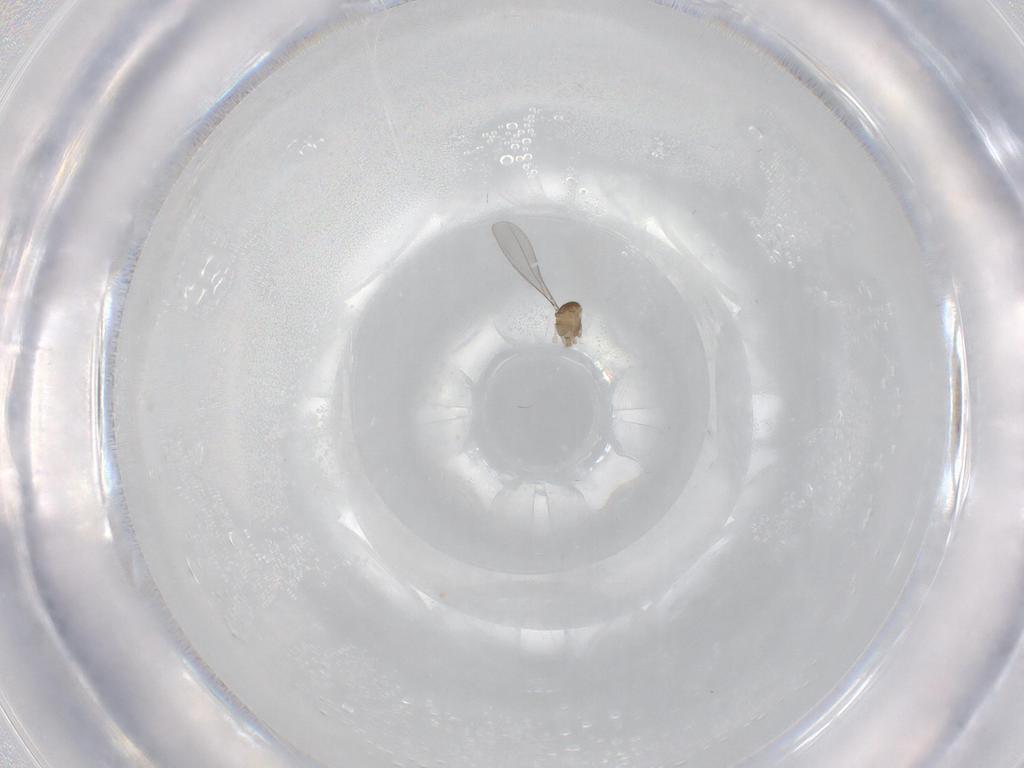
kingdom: Animalia
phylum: Arthropoda
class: Insecta
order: Diptera
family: Cecidomyiidae
